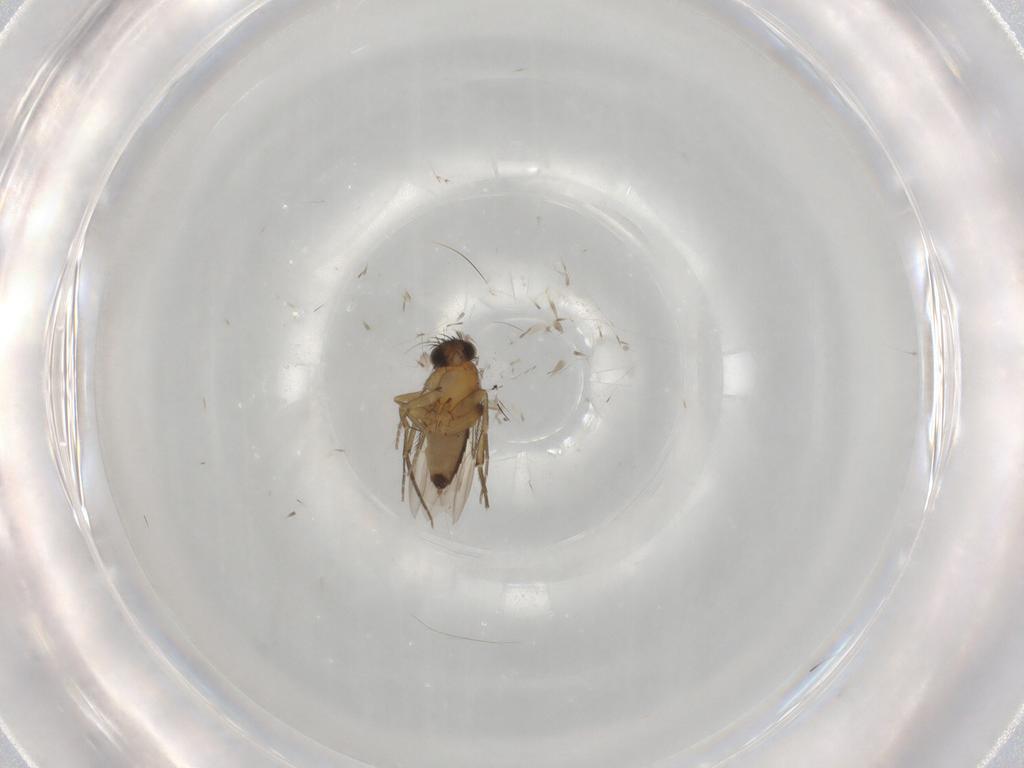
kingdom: Animalia
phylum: Arthropoda
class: Insecta
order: Diptera
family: Phoridae
